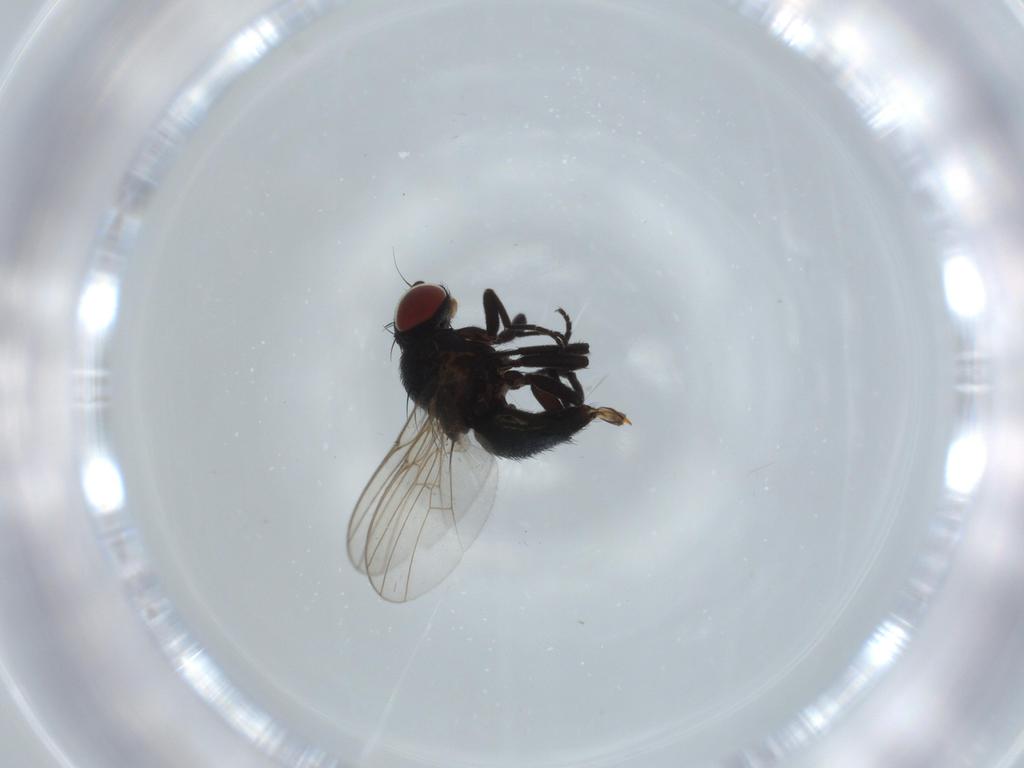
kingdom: Animalia
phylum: Arthropoda
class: Insecta
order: Diptera
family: Agromyzidae
